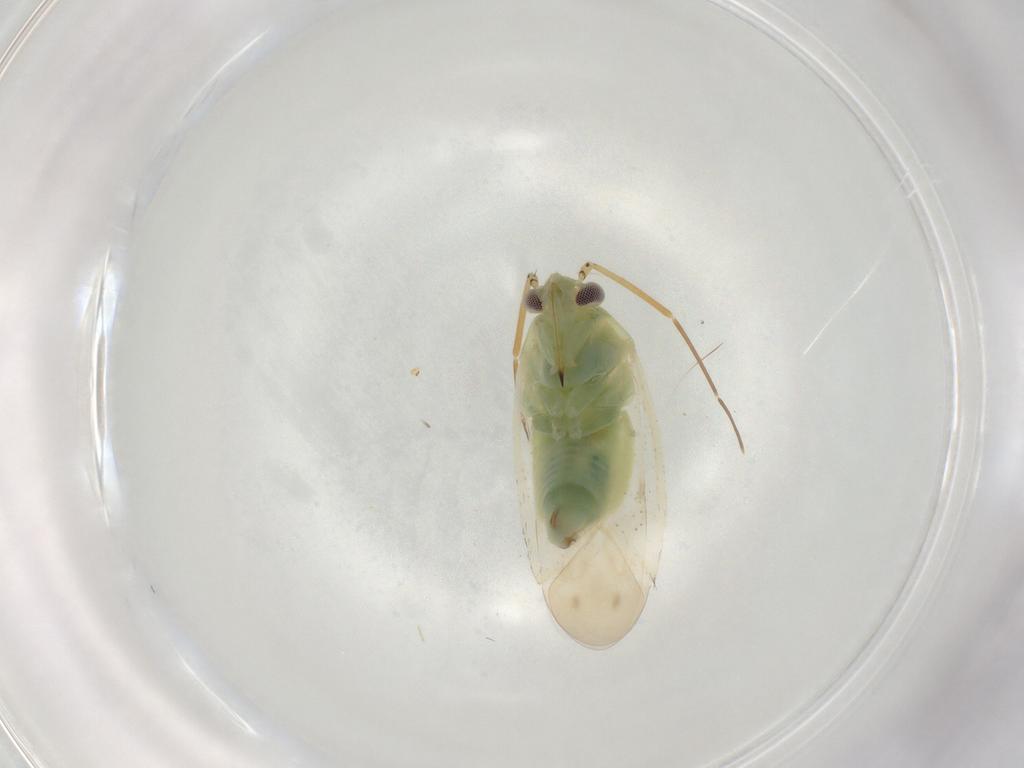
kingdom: Animalia
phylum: Arthropoda
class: Insecta
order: Hemiptera
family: Miridae
